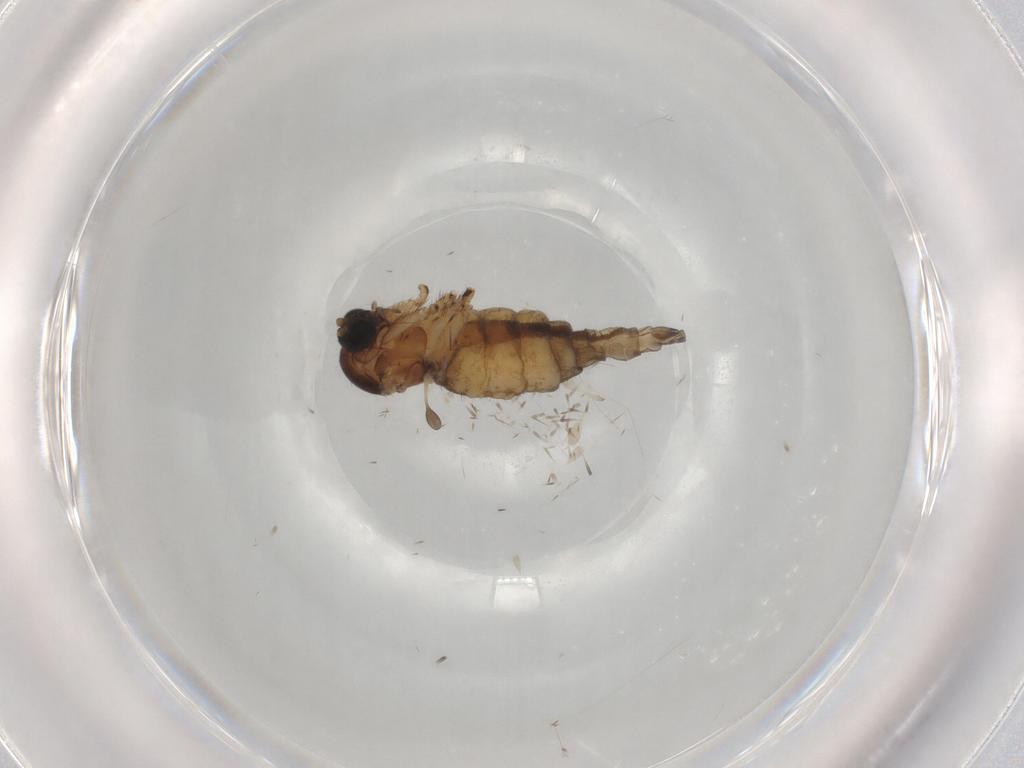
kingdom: Animalia
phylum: Arthropoda
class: Insecta
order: Diptera
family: Sciaridae
